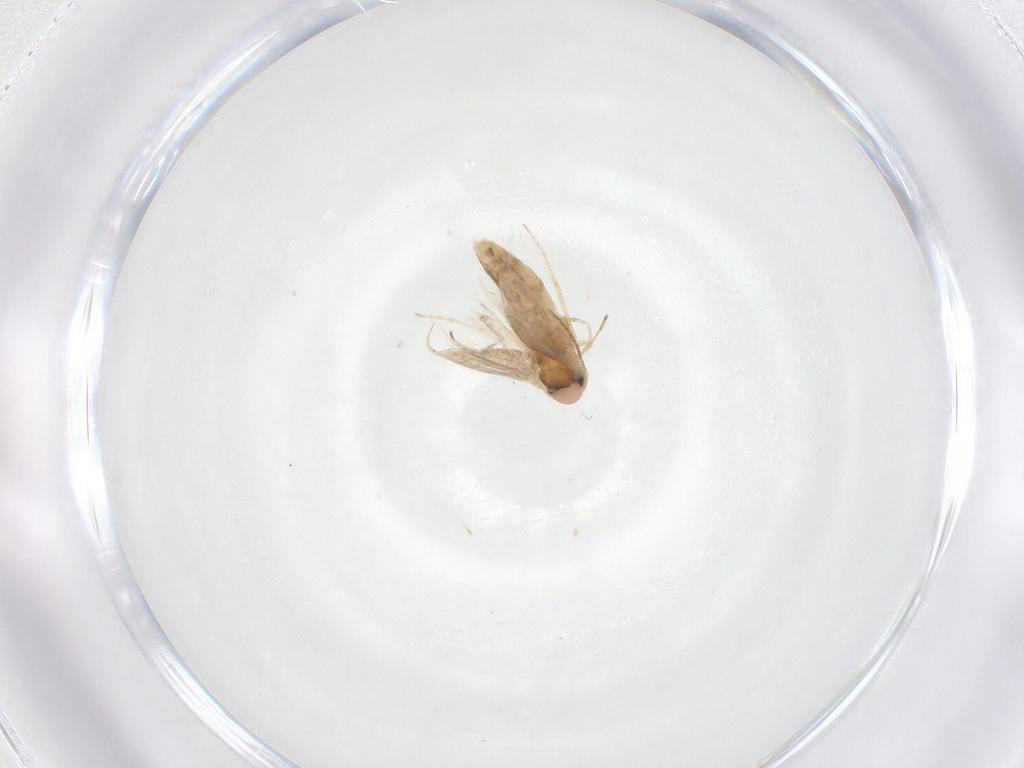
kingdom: Animalia
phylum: Arthropoda
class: Insecta
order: Lepidoptera
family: Lyonetiidae
